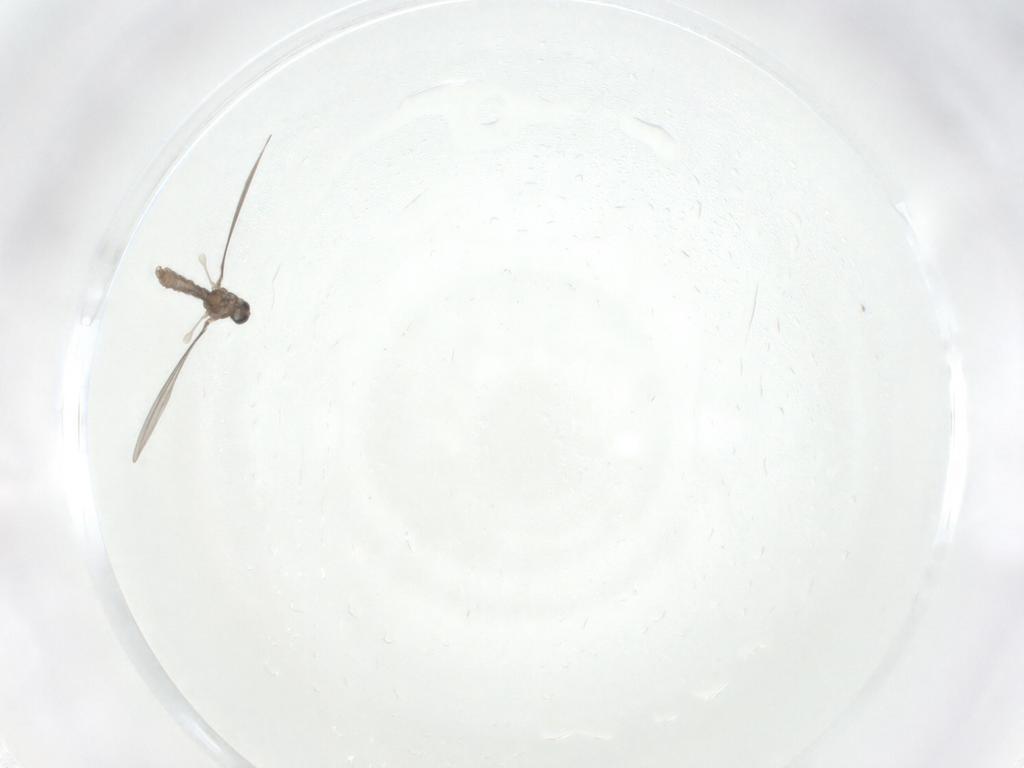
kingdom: Animalia
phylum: Arthropoda
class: Insecta
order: Diptera
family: Cecidomyiidae
